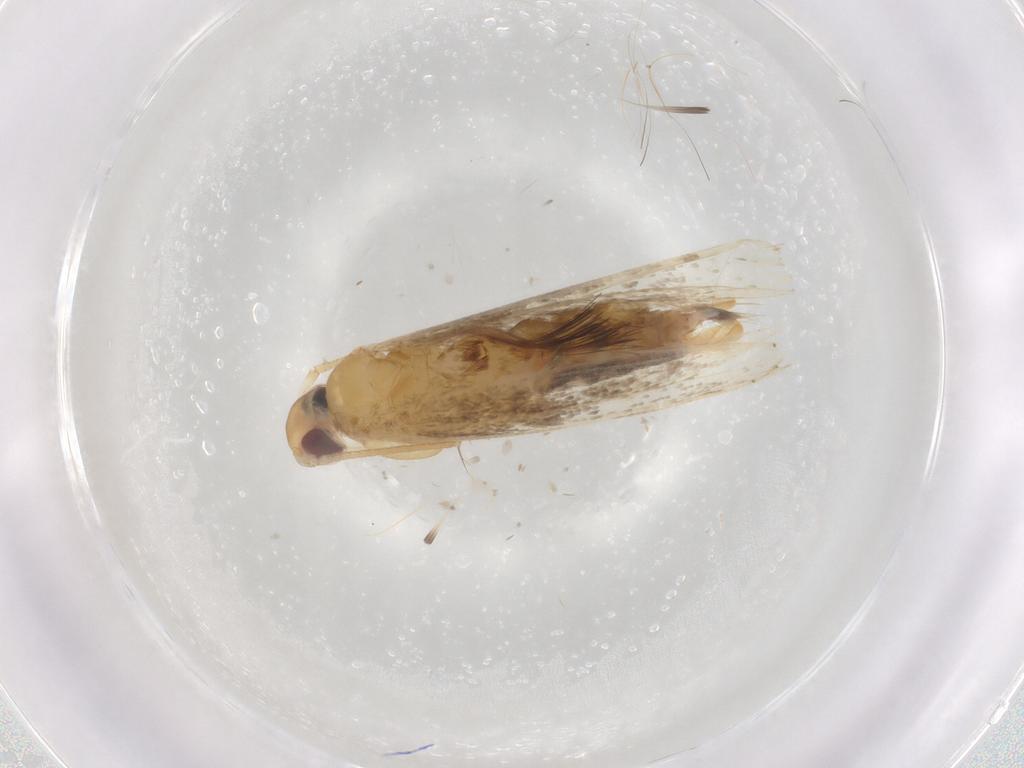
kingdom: Animalia
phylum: Arthropoda
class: Insecta
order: Lepidoptera
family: Cosmopterigidae
